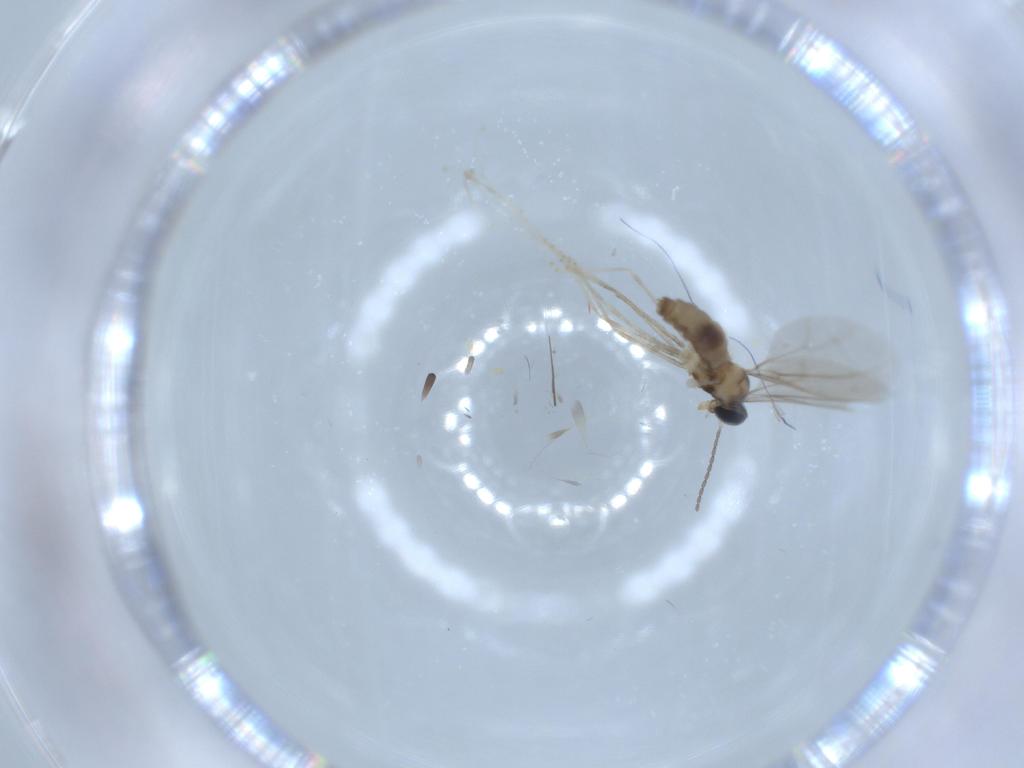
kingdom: Animalia
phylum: Arthropoda
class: Insecta
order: Diptera
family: Cecidomyiidae
